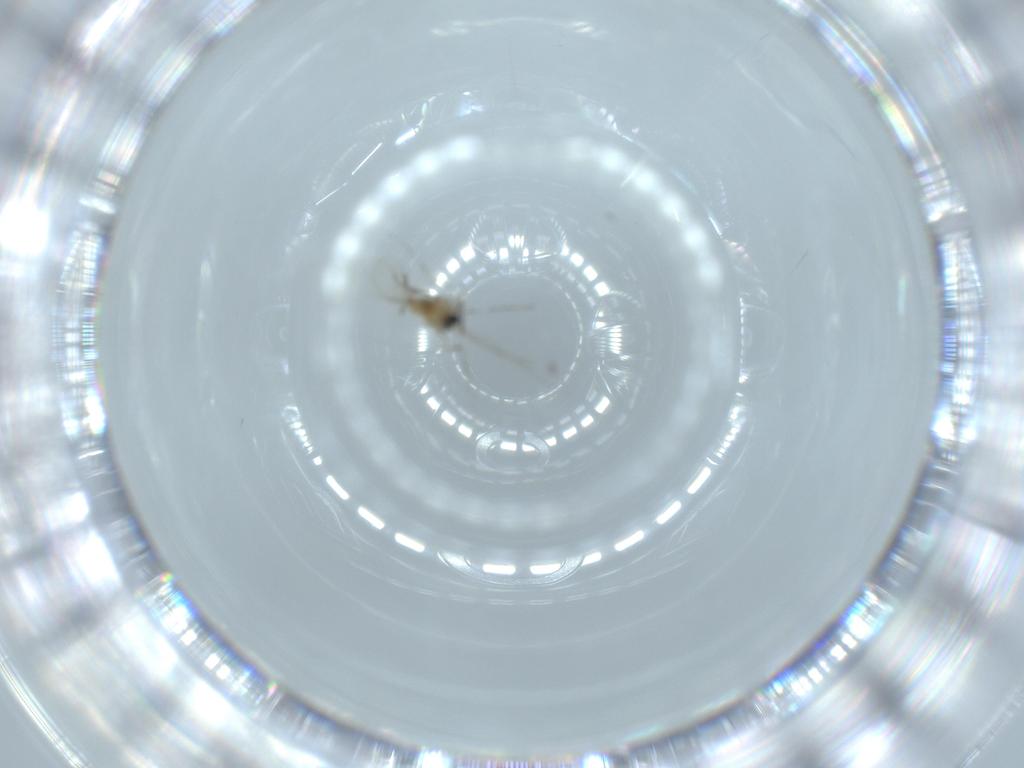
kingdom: Animalia
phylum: Arthropoda
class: Insecta
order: Diptera
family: Cecidomyiidae
